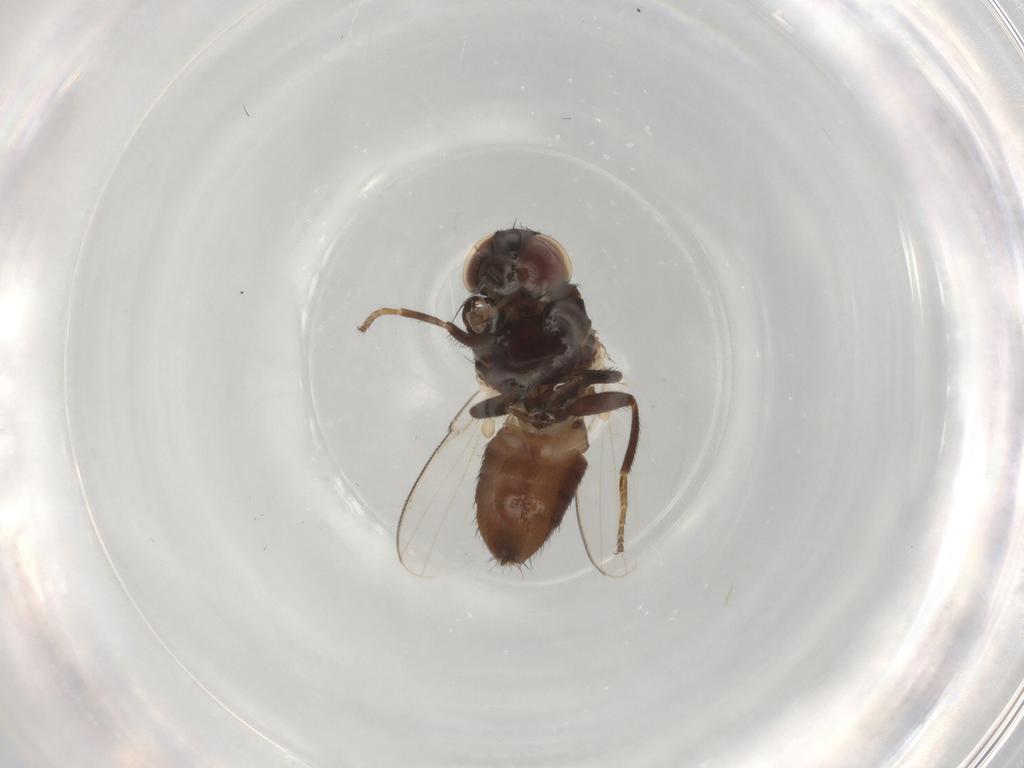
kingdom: Animalia
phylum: Arthropoda
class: Insecta
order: Diptera
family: Milichiidae
